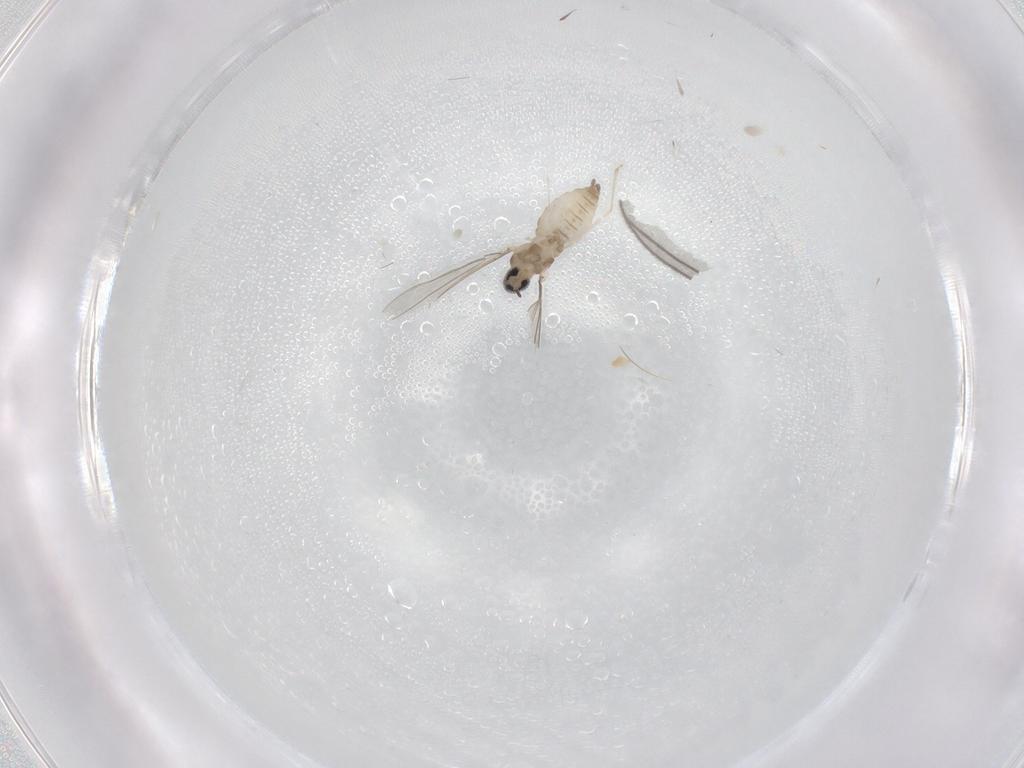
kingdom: Animalia
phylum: Arthropoda
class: Insecta
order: Diptera
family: Cecidomyiidae
